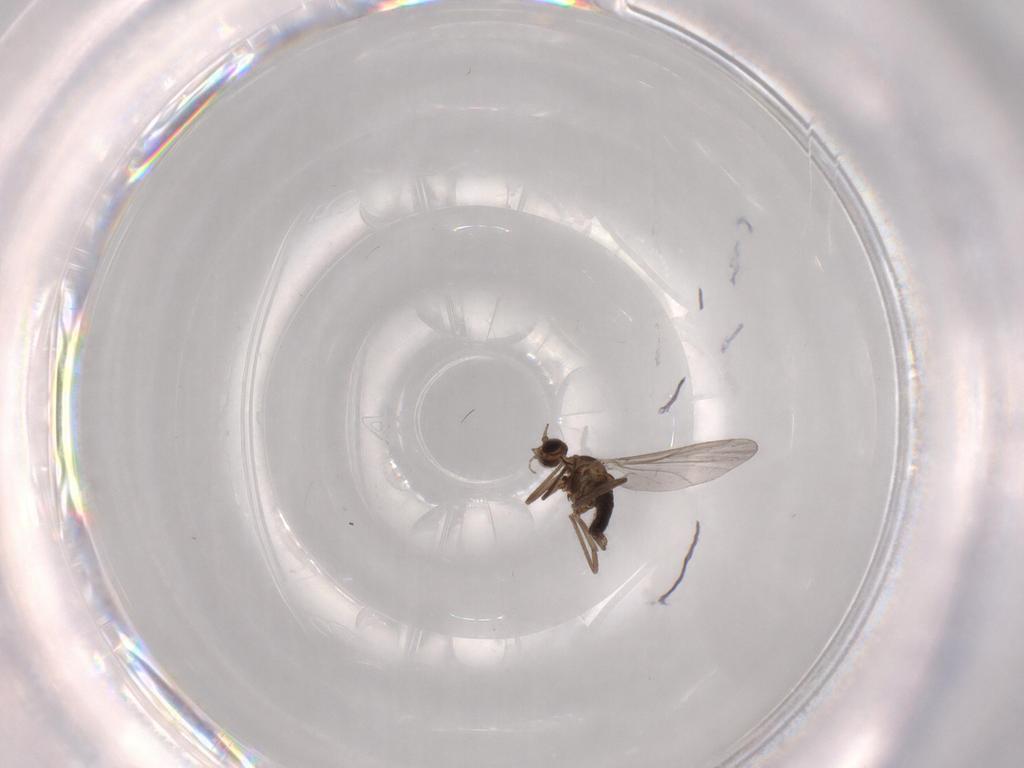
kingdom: Animalia
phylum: Arthropoda
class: Insecta
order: Diptera
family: Cecidomyiidae
